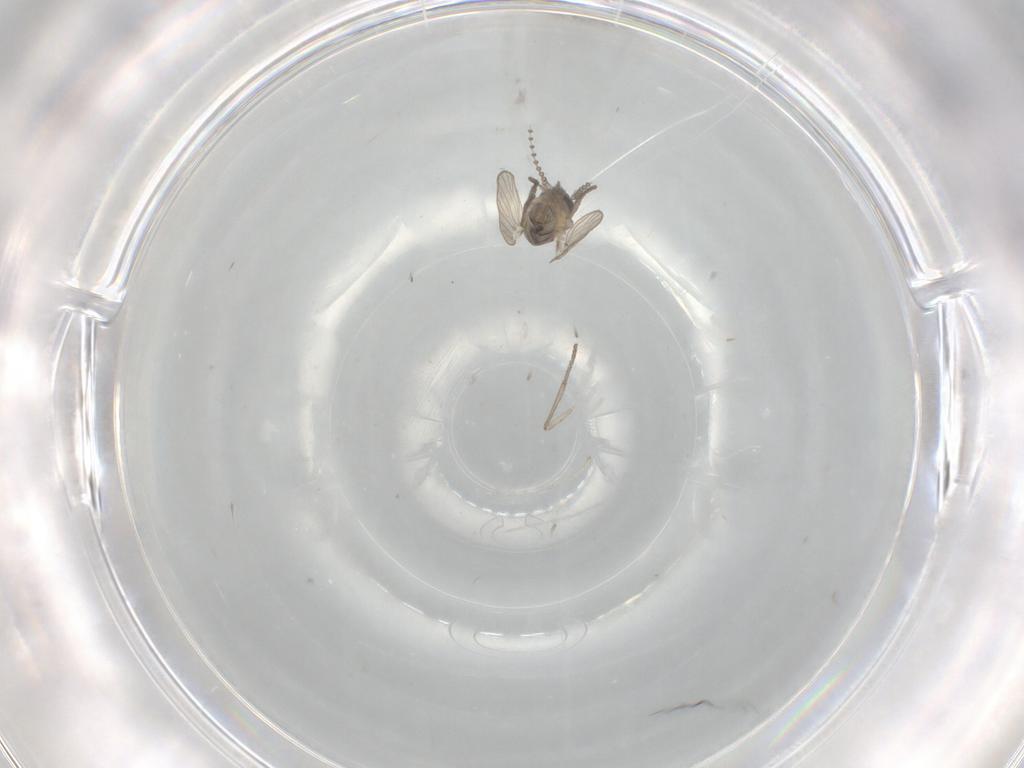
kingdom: Animalia
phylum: Arthropoda
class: Insecta
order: Diptera
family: Psychodidae
